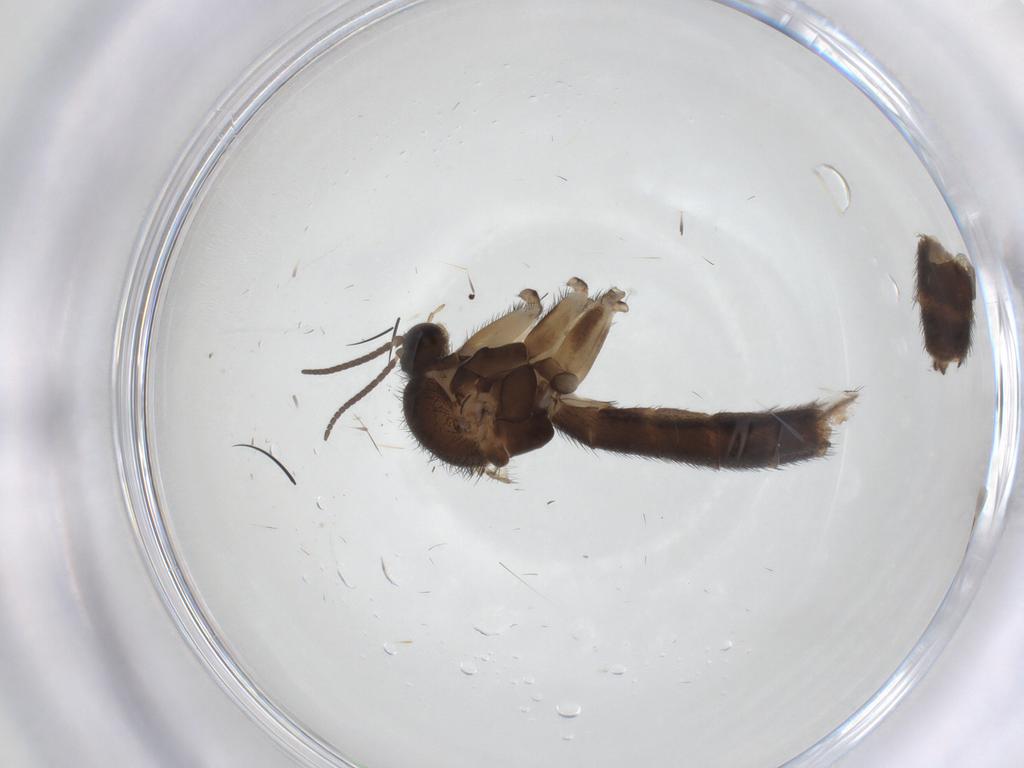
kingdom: Animalia
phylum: Arthropoda
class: Insecta
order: Diptera
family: Keroplatidae
